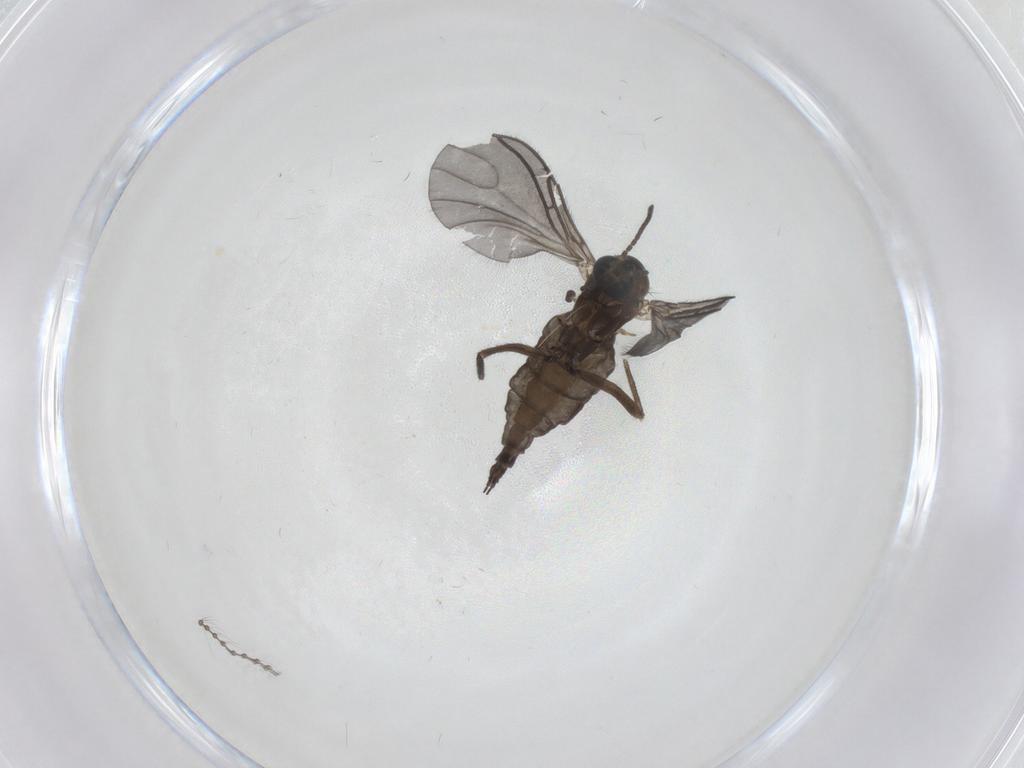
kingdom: Animalia
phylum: Arthropoda
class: Insecta
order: Diptera
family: Sciaridae
